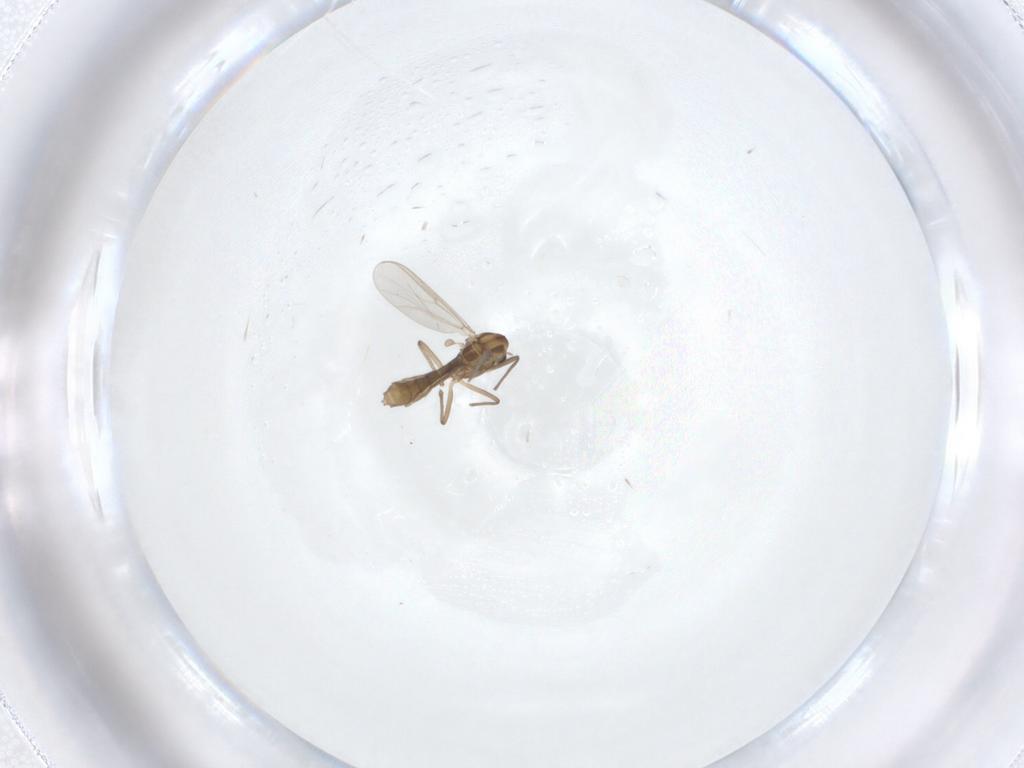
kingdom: Animalia
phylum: Arthropoda
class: Insecta
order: Diptera
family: Chironomidae
